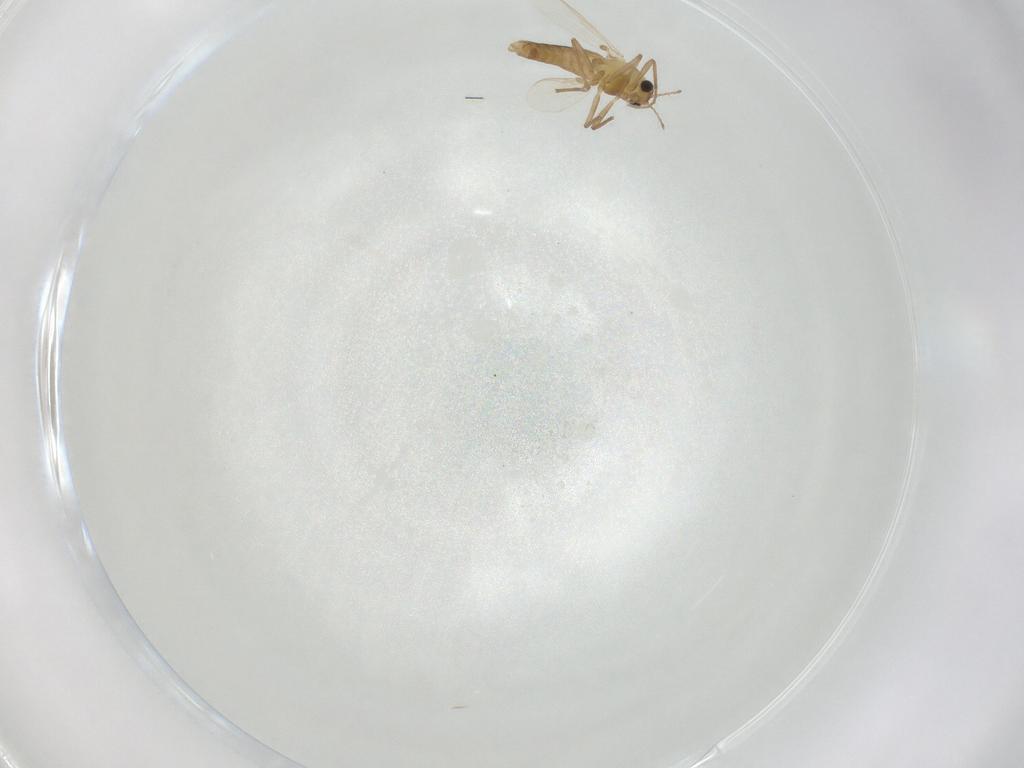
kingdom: Animalia
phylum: Arthropoda
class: Insecta
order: Diptera
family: Chironomidae
